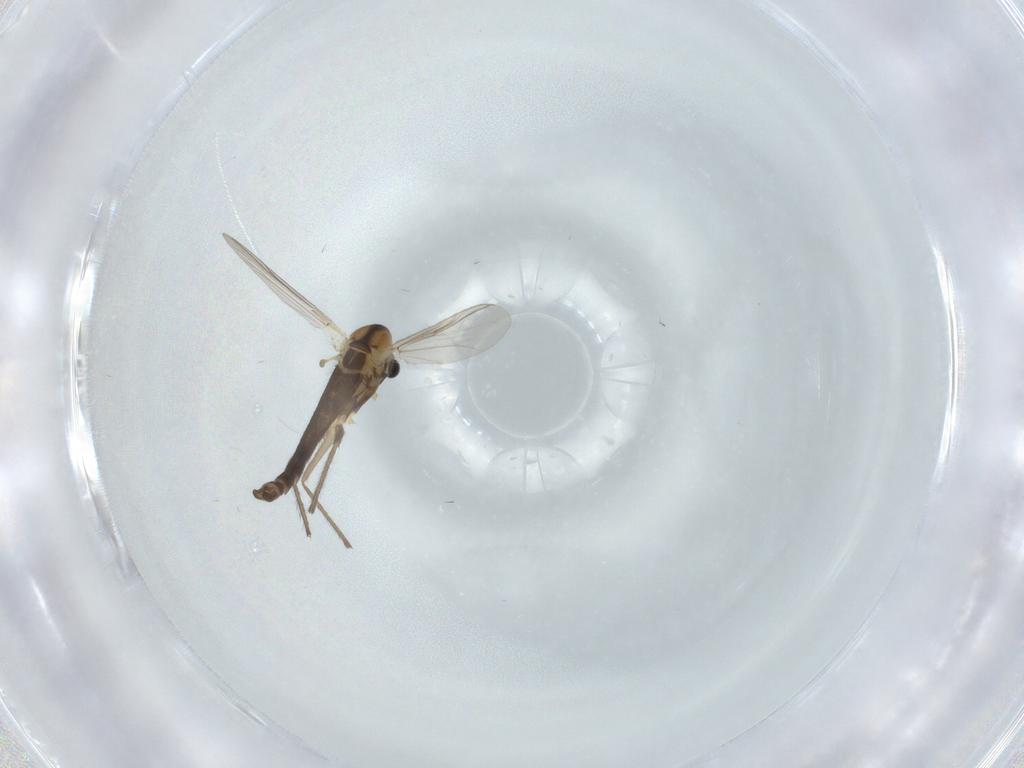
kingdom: Animalia
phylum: Arthropoda
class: Insecta
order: Diptera
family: Chironomidae
